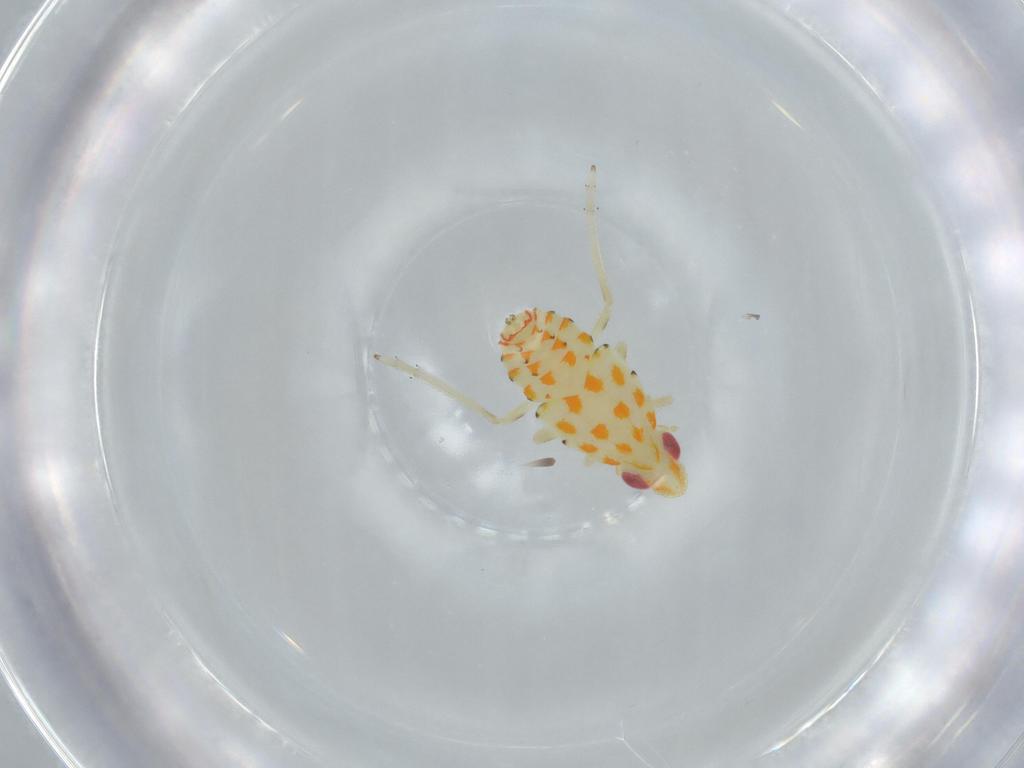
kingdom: Animalia
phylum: Arthropoda
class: Insecta
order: Hemiptera
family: Tropiduchidae
